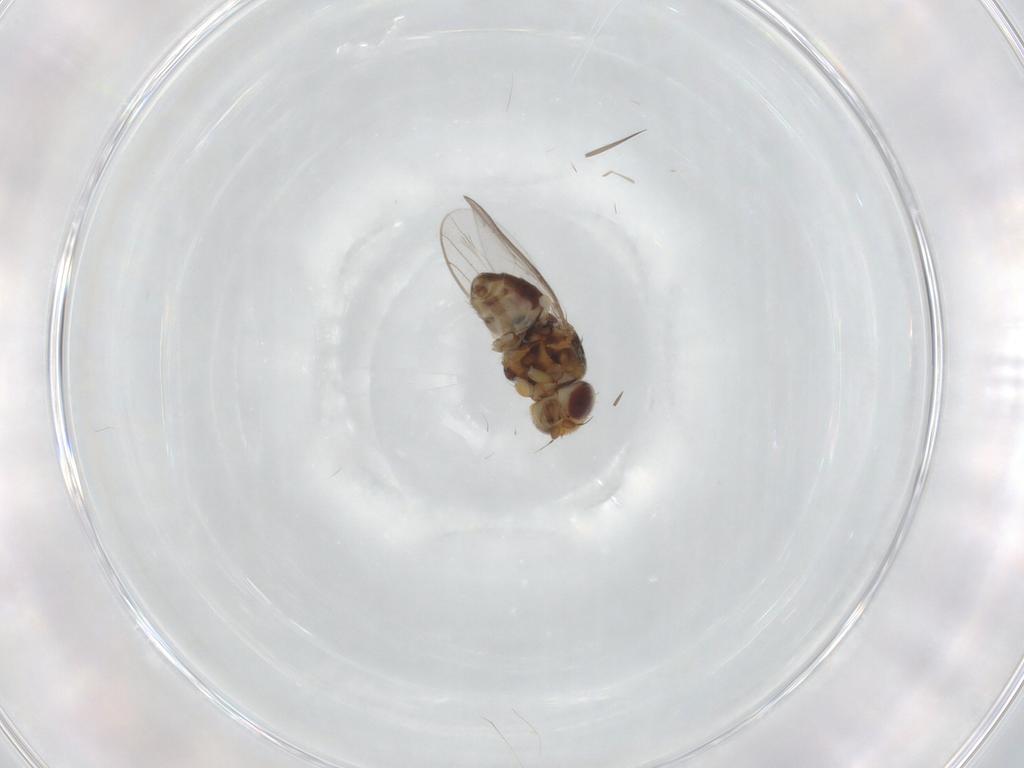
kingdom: Animalia
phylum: Arthropoda
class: Insecta
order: Diptera
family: Chloropidae
